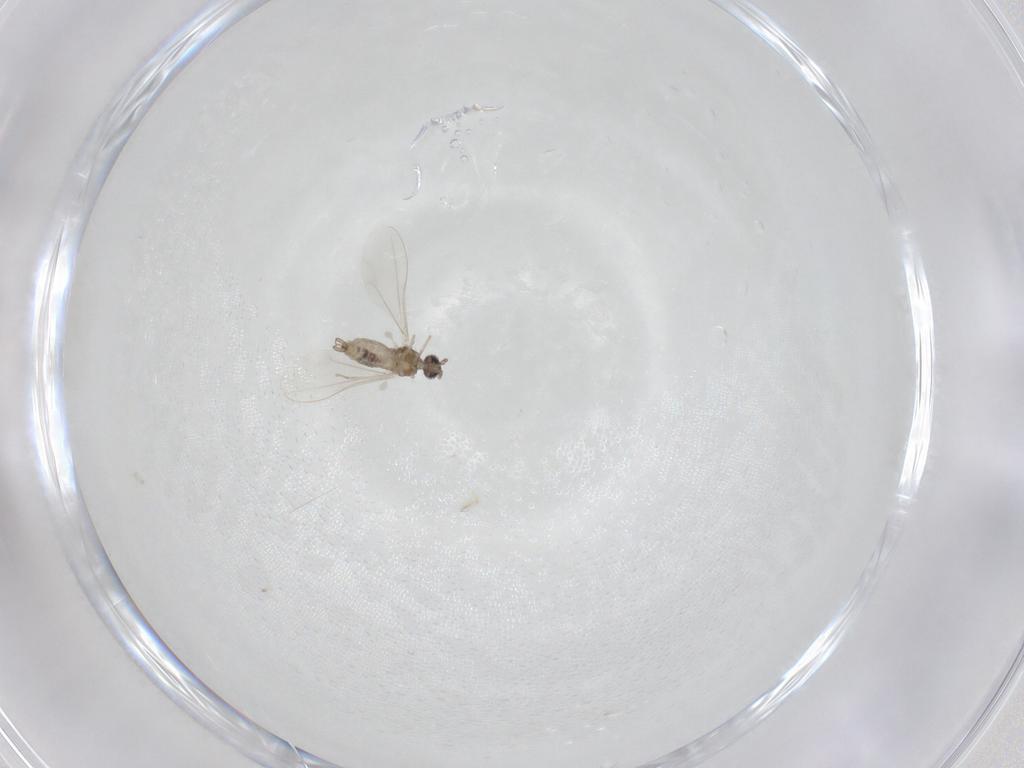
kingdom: Animalia
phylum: Arthropoda
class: Insecta
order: Diptera
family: Cecidomyiidae
